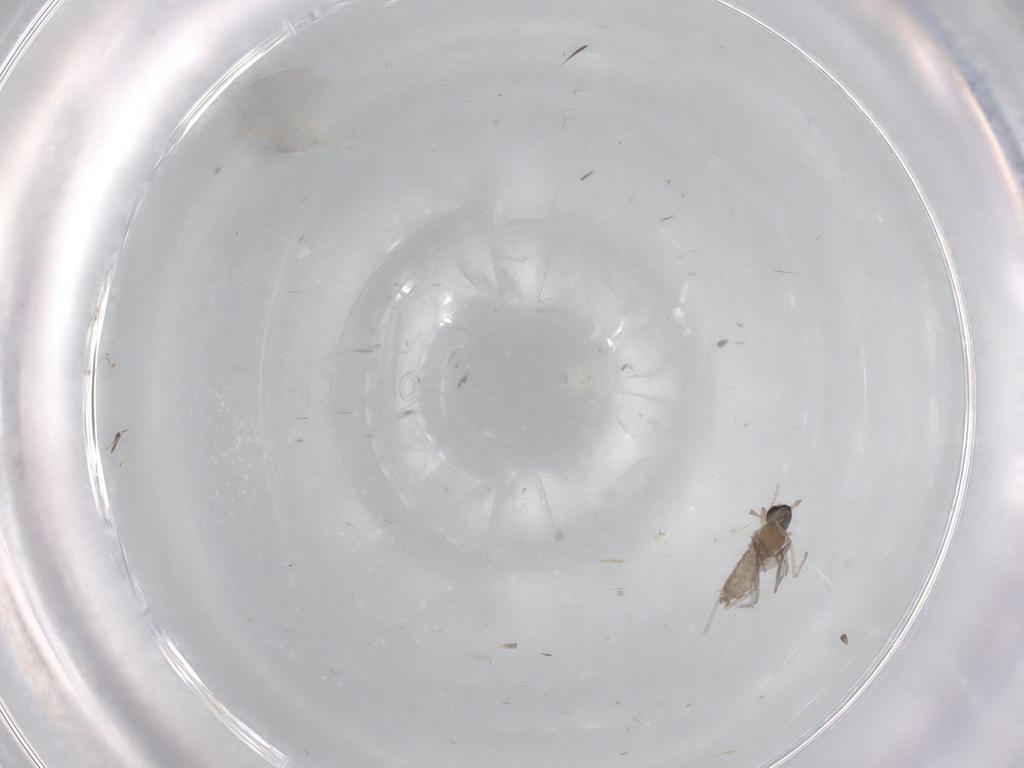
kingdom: Animalia
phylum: Arthropoda
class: Insecta
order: Diptera
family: Cecidomyiidae
